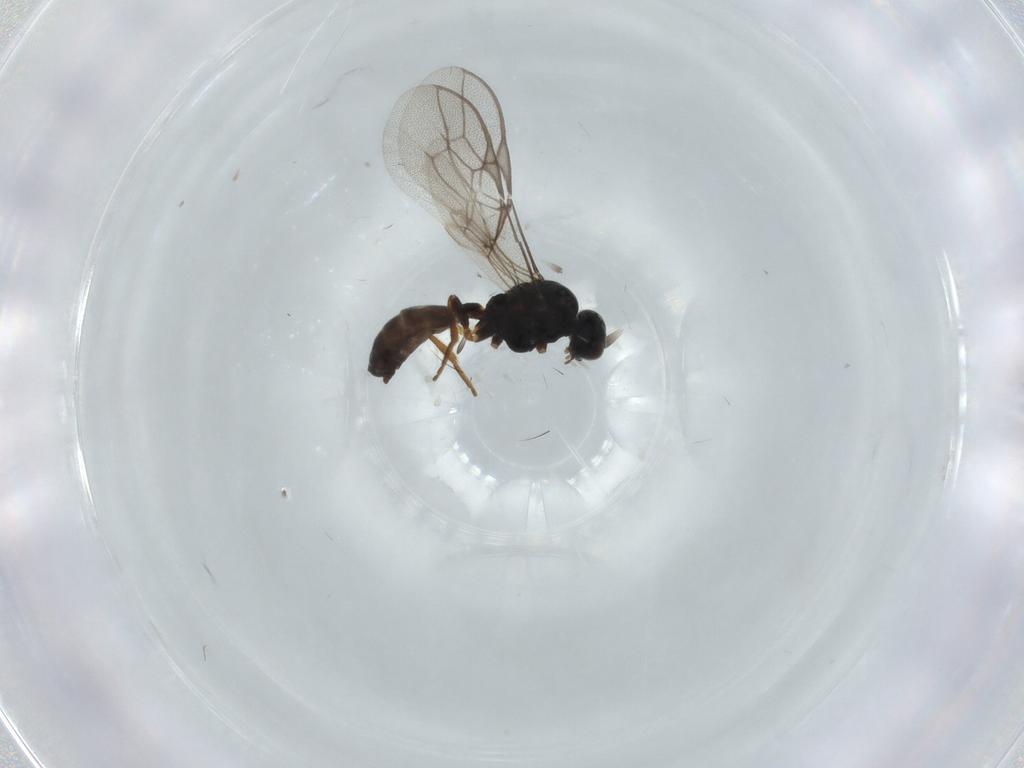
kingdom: Animalia
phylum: Arthropoda
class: Insecta
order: Hymenoptera
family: Braconidae
